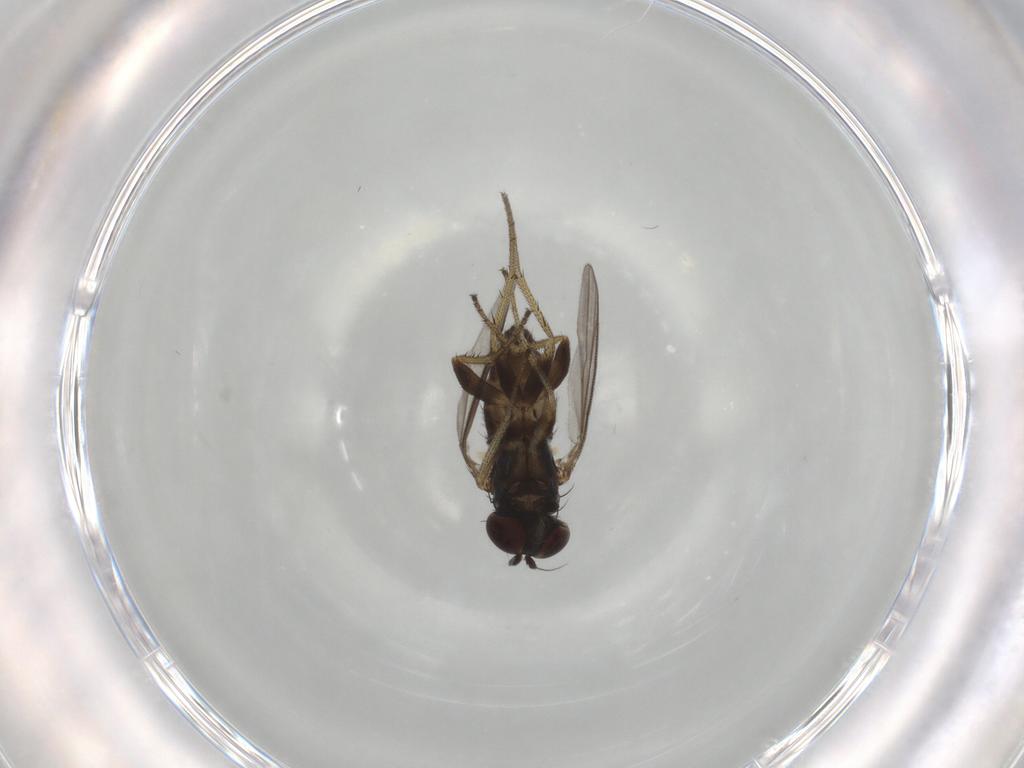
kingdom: Animalia
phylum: Arthropoda
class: Insecta
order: Diptera
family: Dolichopodidae
